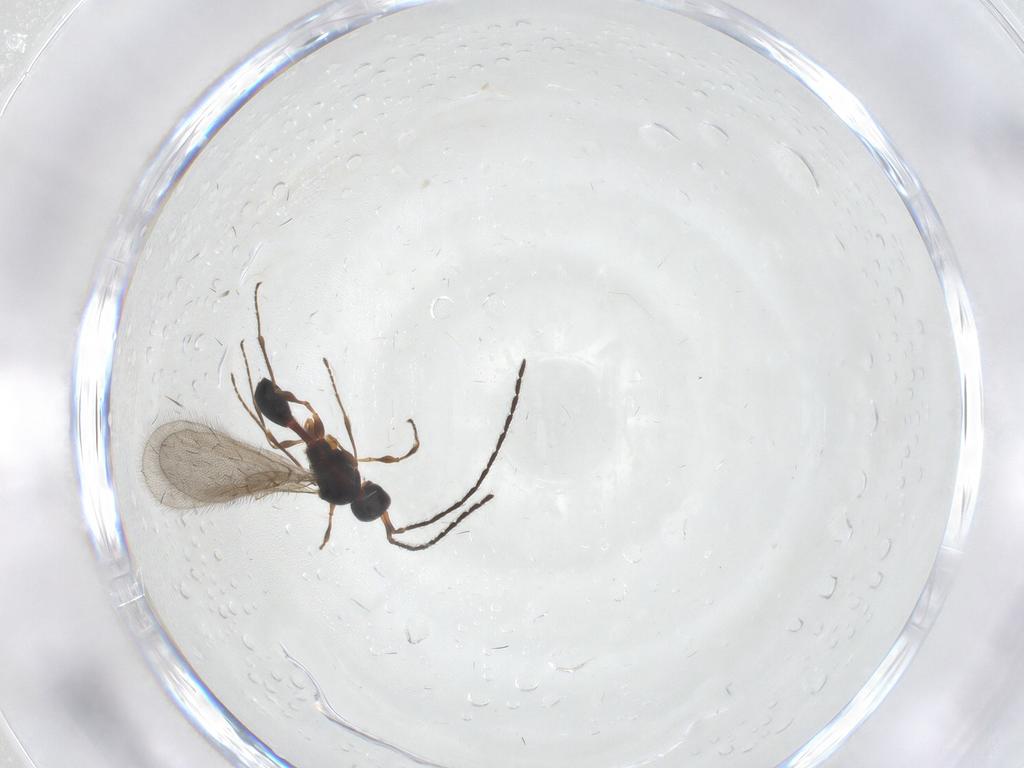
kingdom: Animalia
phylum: Arthropoda
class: Insecta
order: Hymenoptera
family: Diapriidae
